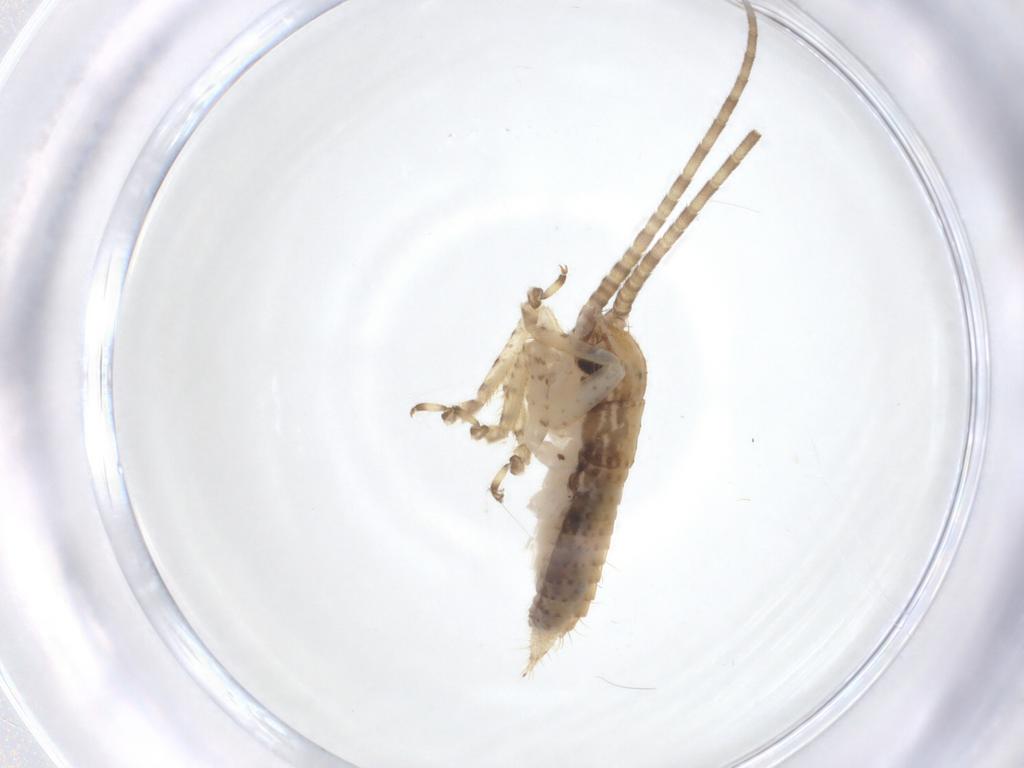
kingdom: Animalia
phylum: Arthropoda
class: Insecta
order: Orthoptera
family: Gryllidae
